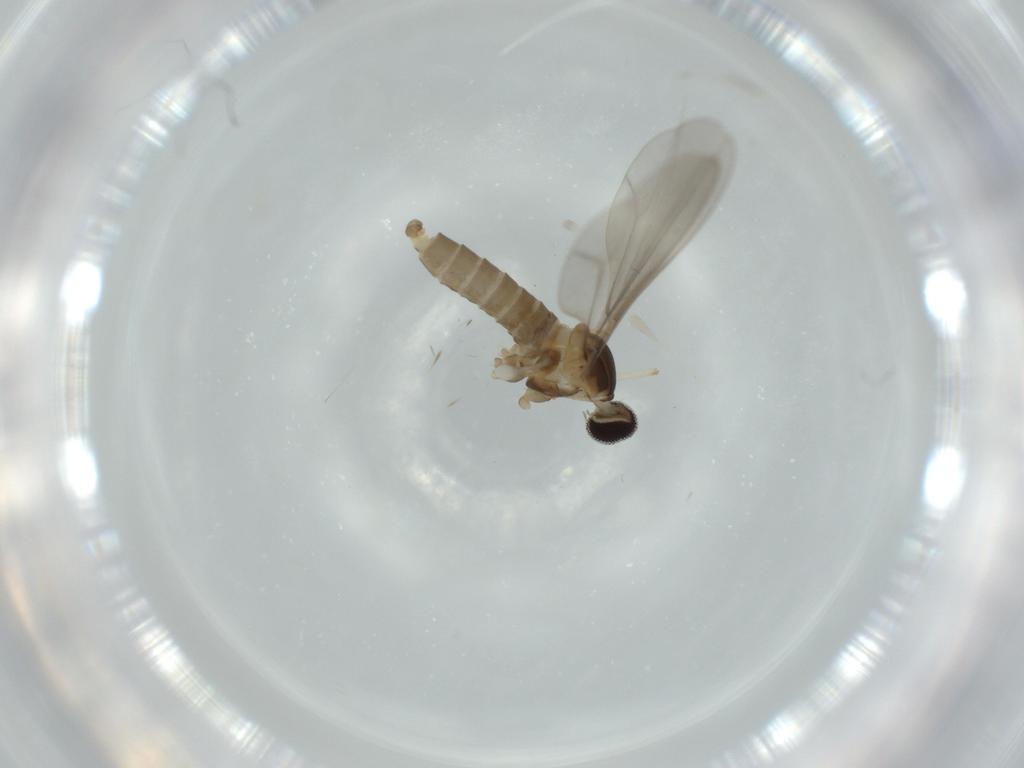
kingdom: Animalia
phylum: Arthropoda
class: Insecta
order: Diptera
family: Cecidomyiidae
